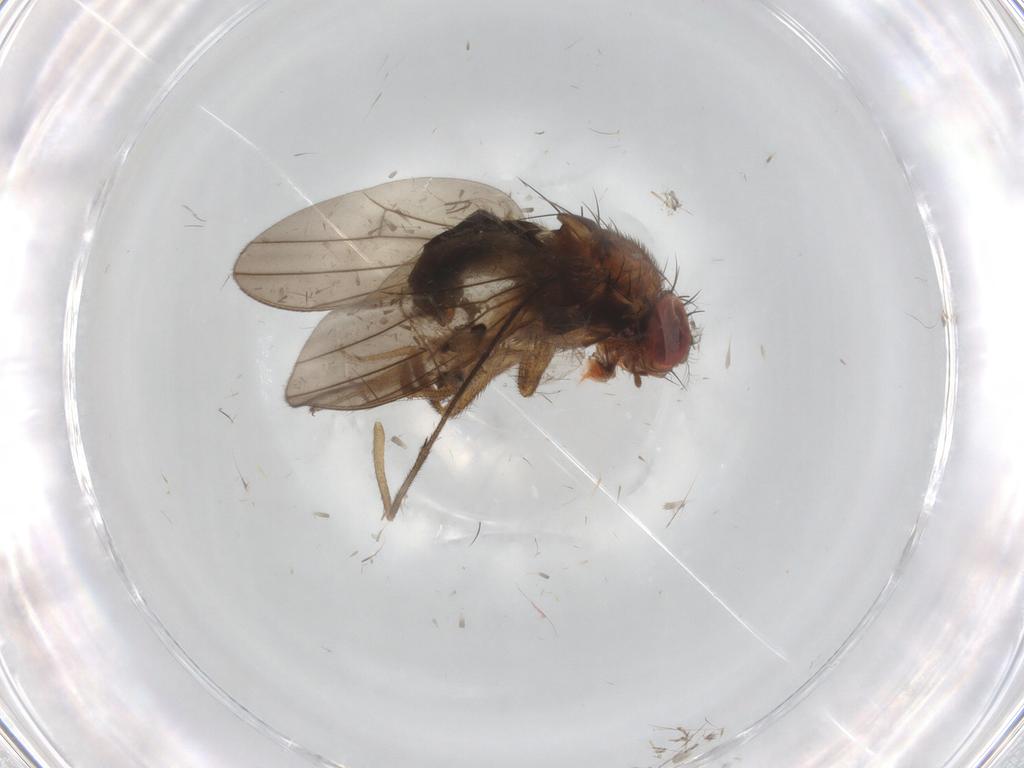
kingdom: Animalia
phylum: Arthropoda
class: Insecta
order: Diptera
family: Drosophilidae
